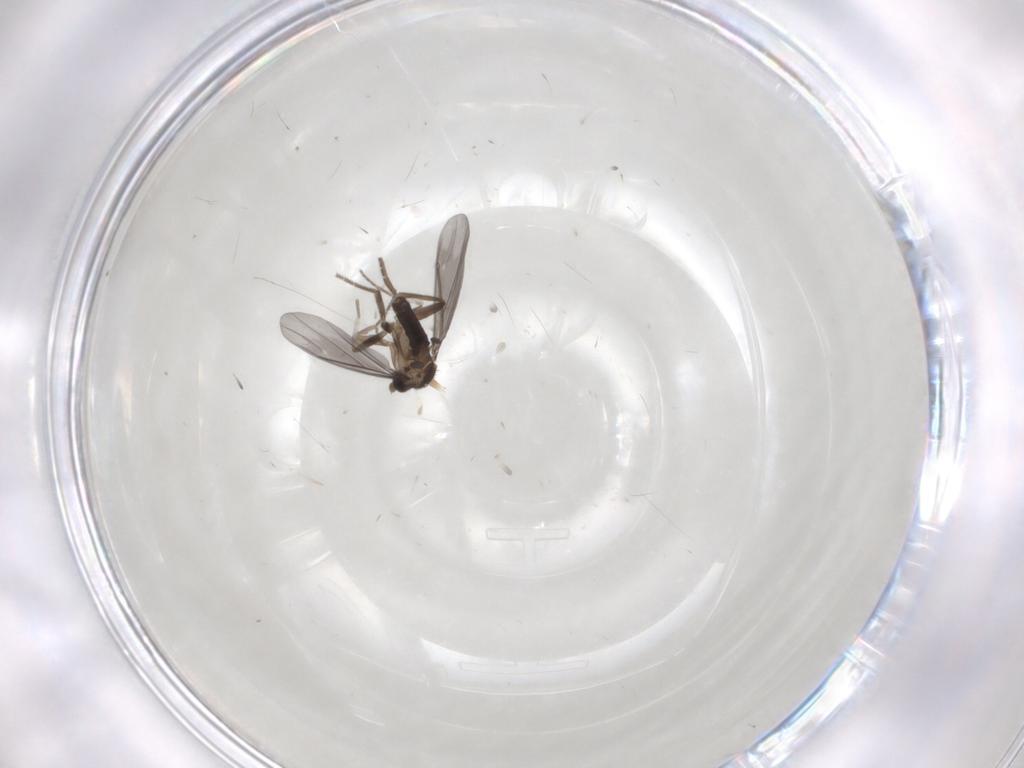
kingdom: Animalia
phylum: Arthropoda
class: Insecta
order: Diptera
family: Phoridae
